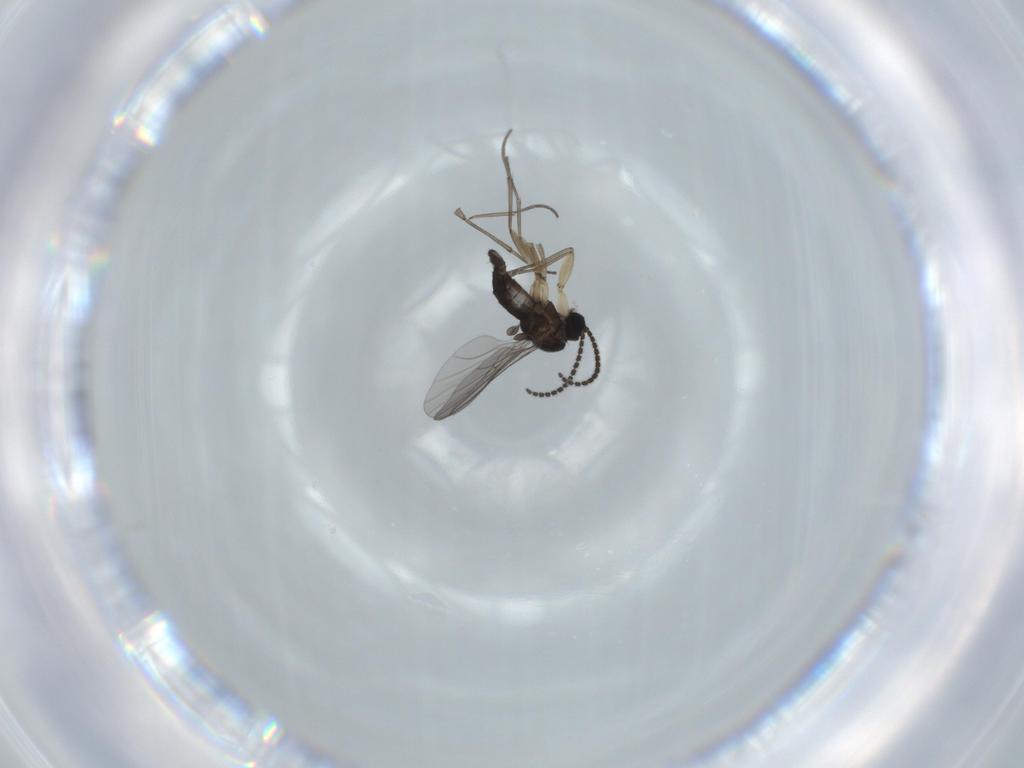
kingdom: Animalia
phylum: Arthropoda
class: Insecta
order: Diptera
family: Sciaridae
